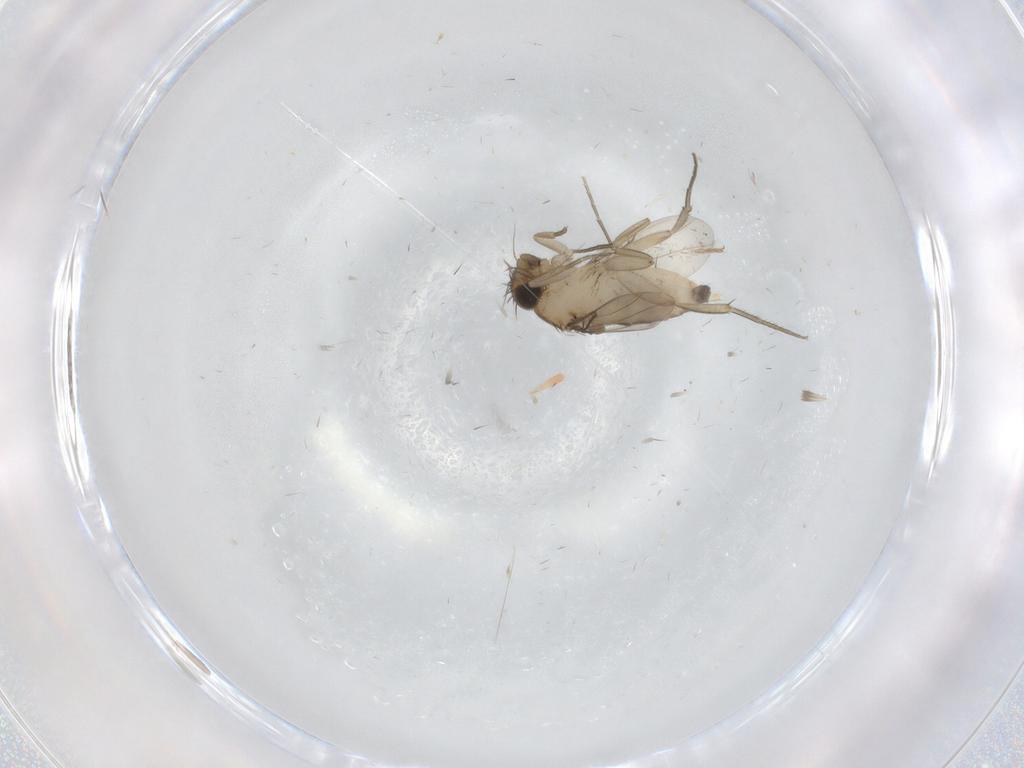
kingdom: Animalia
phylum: Arthropoda
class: Insecta
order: Diptera
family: Phoridae
